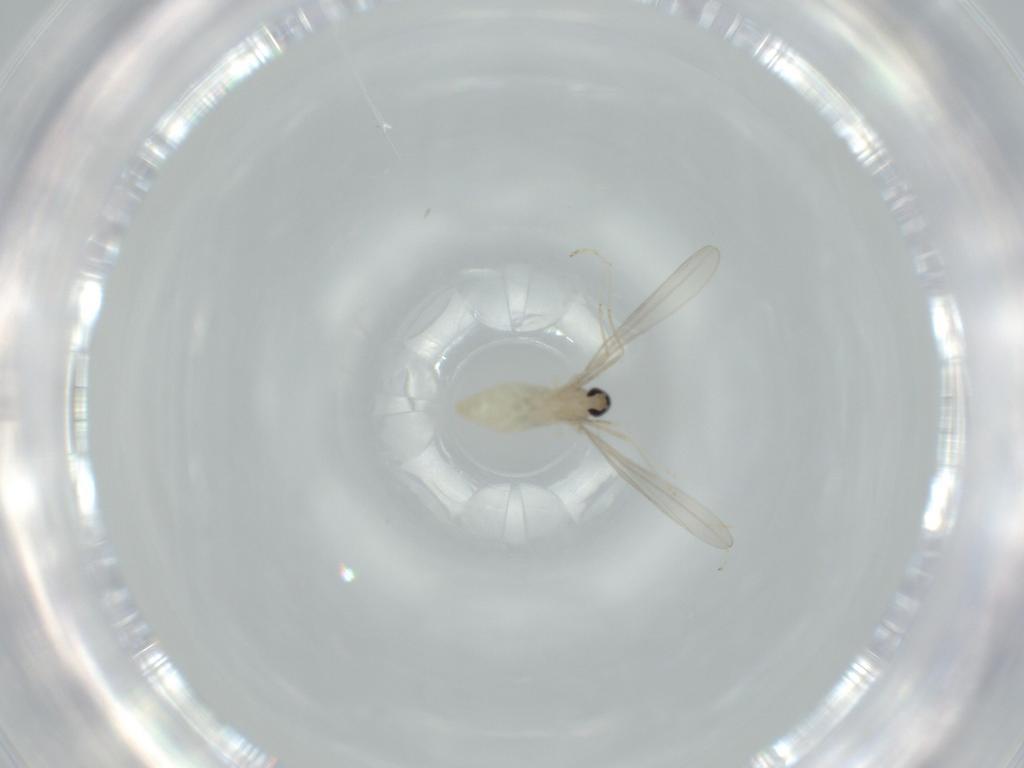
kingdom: Animalia
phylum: Arthropoda
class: Insecta
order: Diptera
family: Cecidomyiidae
